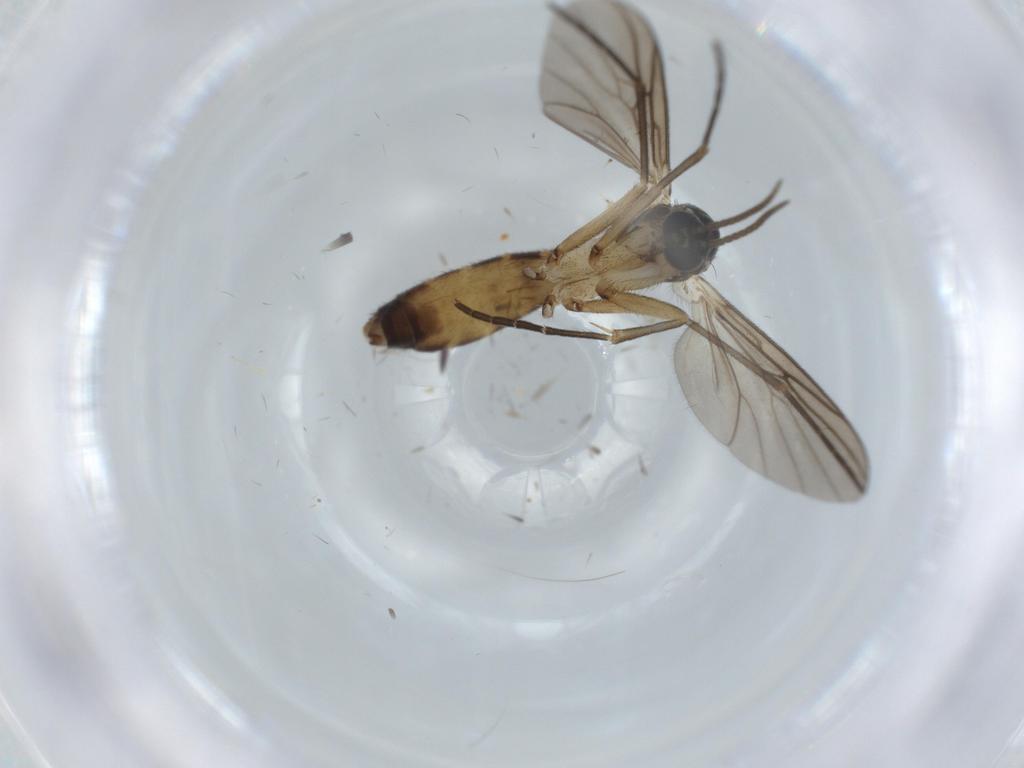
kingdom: Animalia
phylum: Arthropoda
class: Insecta
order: Diptera
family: Mycetophilidae
